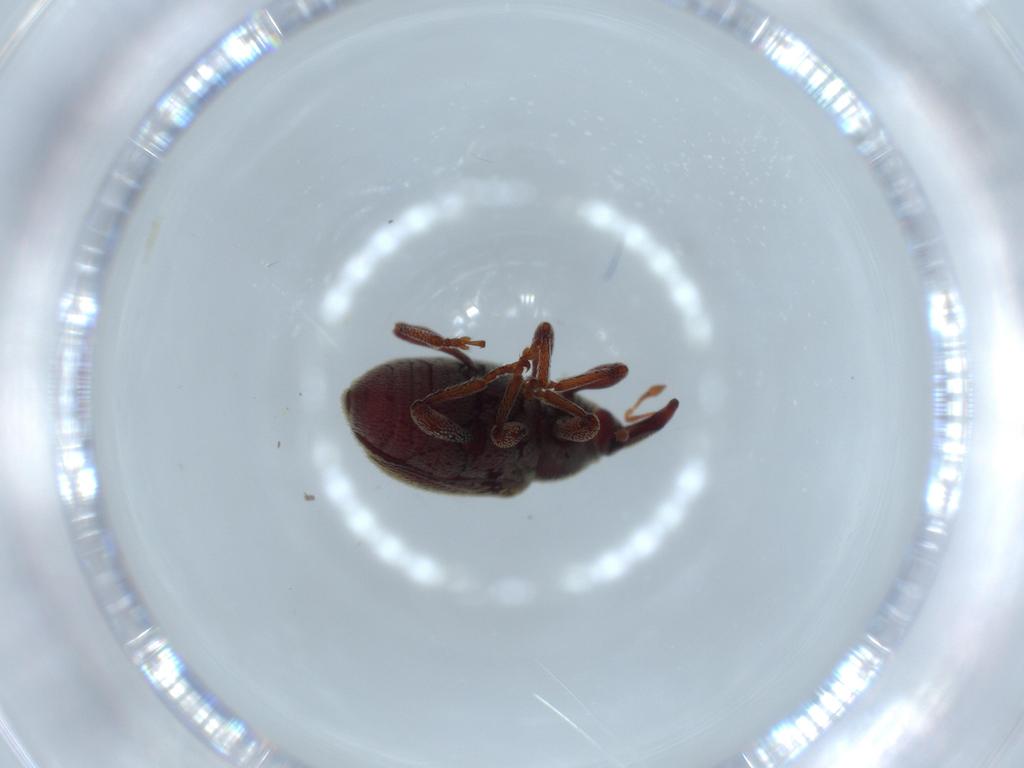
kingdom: Animalia
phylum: Arthropoda
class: Insecta
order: Coleoptera
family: Curculionidae
